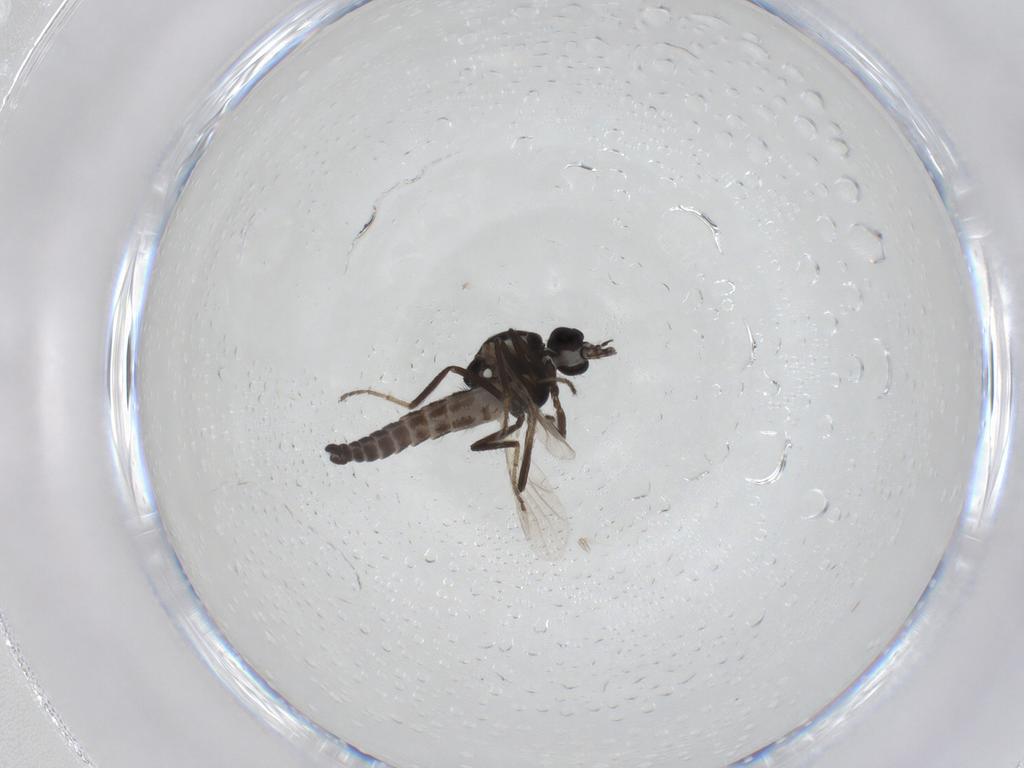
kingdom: Animalia
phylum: Arthropoda
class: Insecta
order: Diptera
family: Ceratopogonidae
